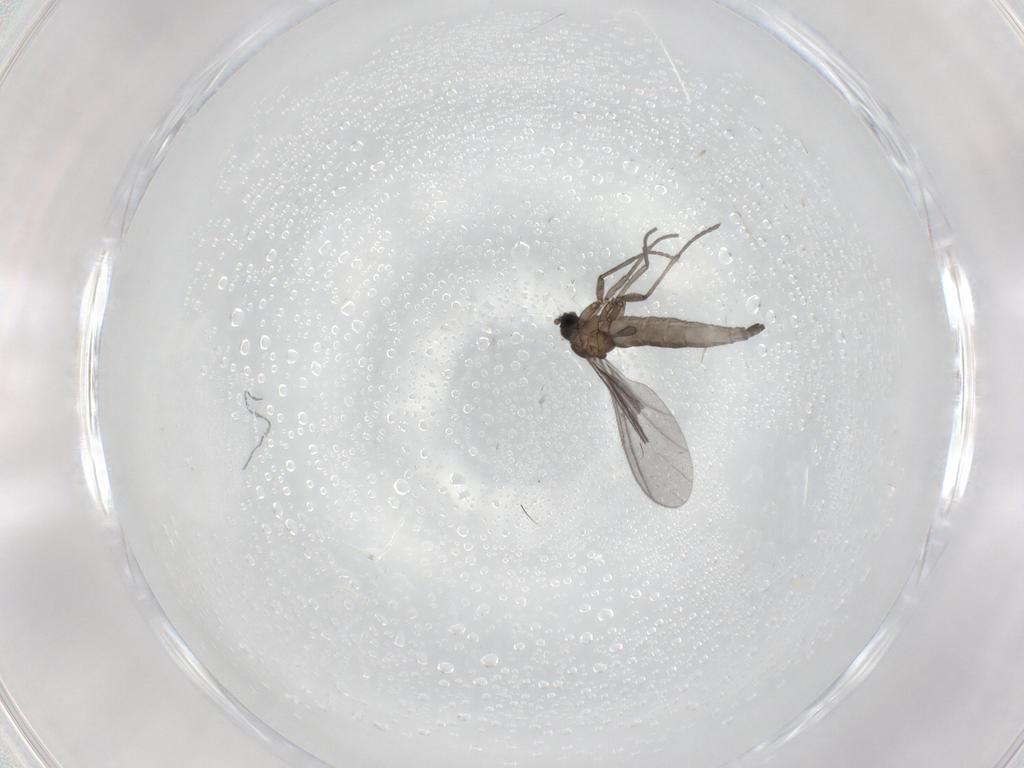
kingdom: Animalia
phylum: Arthropoda
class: Insecta
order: Diptera
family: Sciaridae
